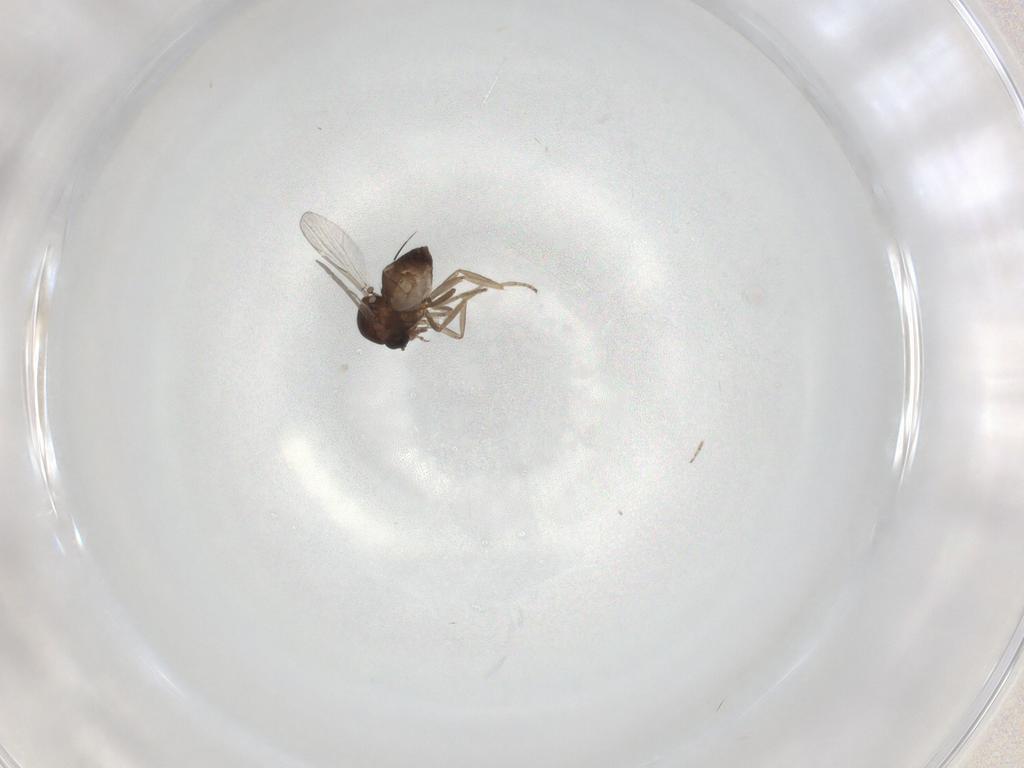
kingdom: Animalia
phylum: Arthropoda
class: Insecta
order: Diptera
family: Ceratopogonidae
